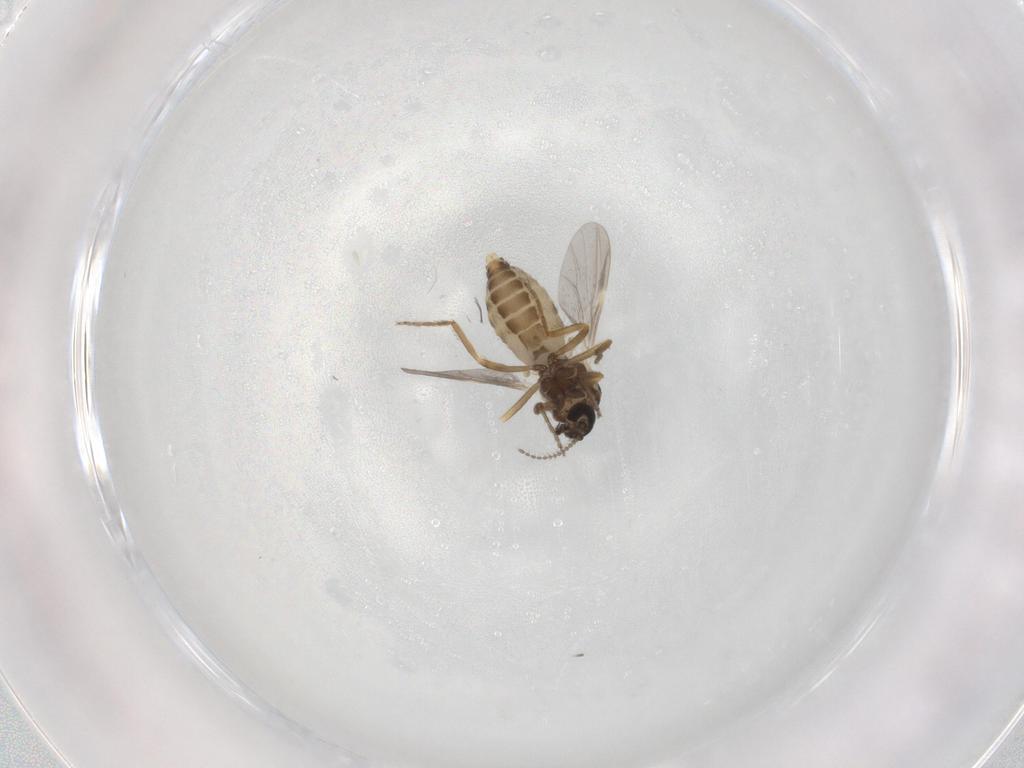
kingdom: Animalia
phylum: Arthropoda
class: Insecta
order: Diptera
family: Ceratopogonidae
